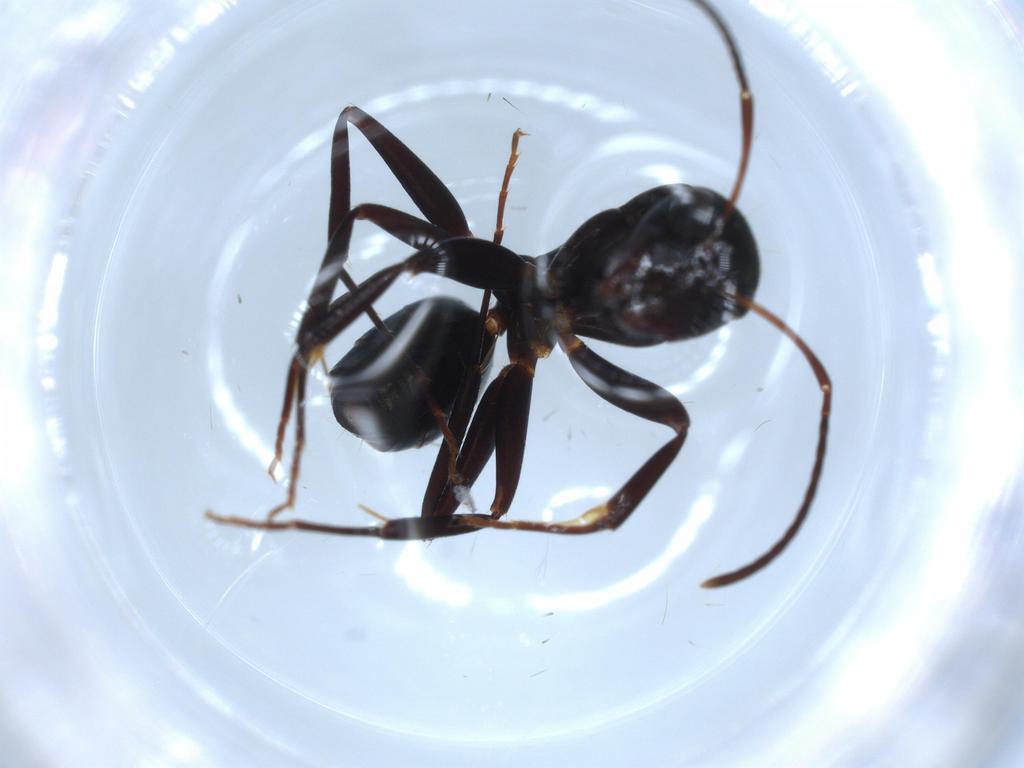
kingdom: Animalia
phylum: Arthropoda
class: Insecta
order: Hymenoptera
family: Formicidae
